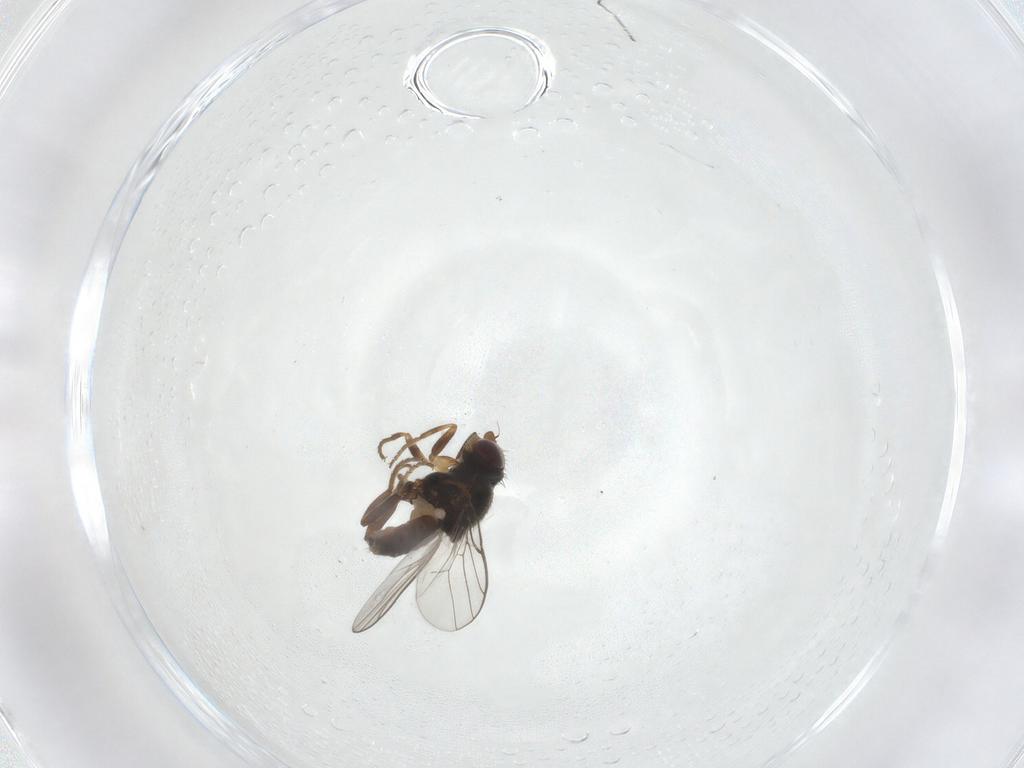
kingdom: Animalia
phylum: Arthropoda
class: Insecta
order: Diptera
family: Chloropidae
